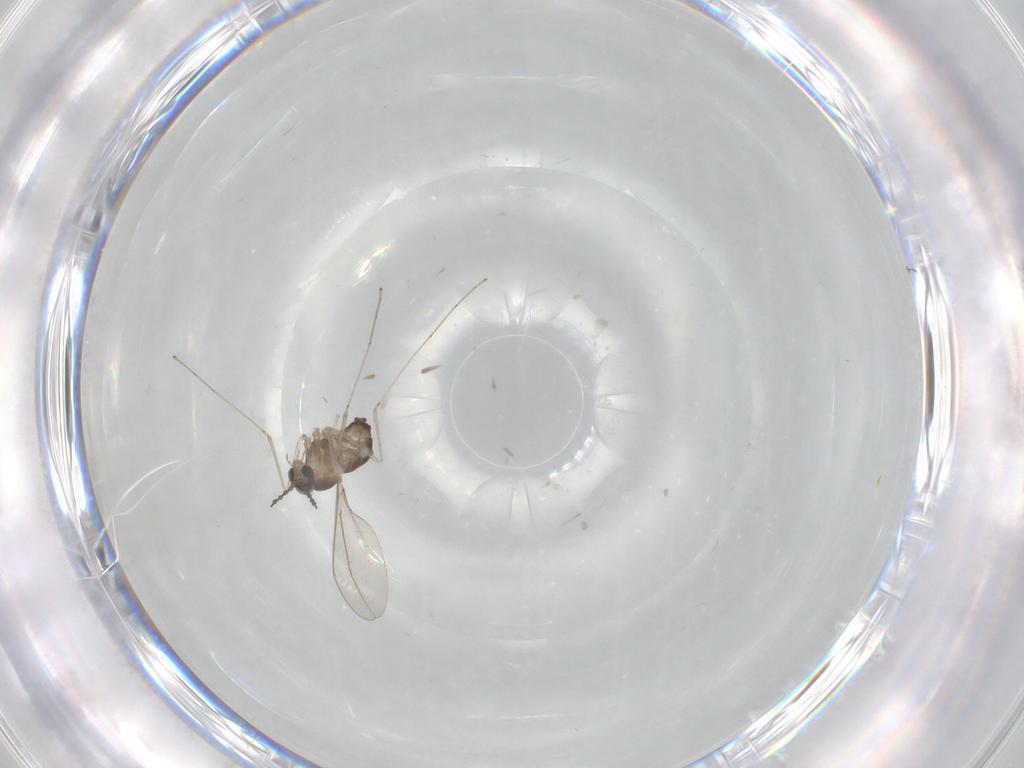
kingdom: Animalia
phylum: Arthropoda
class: Insecta
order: Diptera
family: Cecidomyiidae
